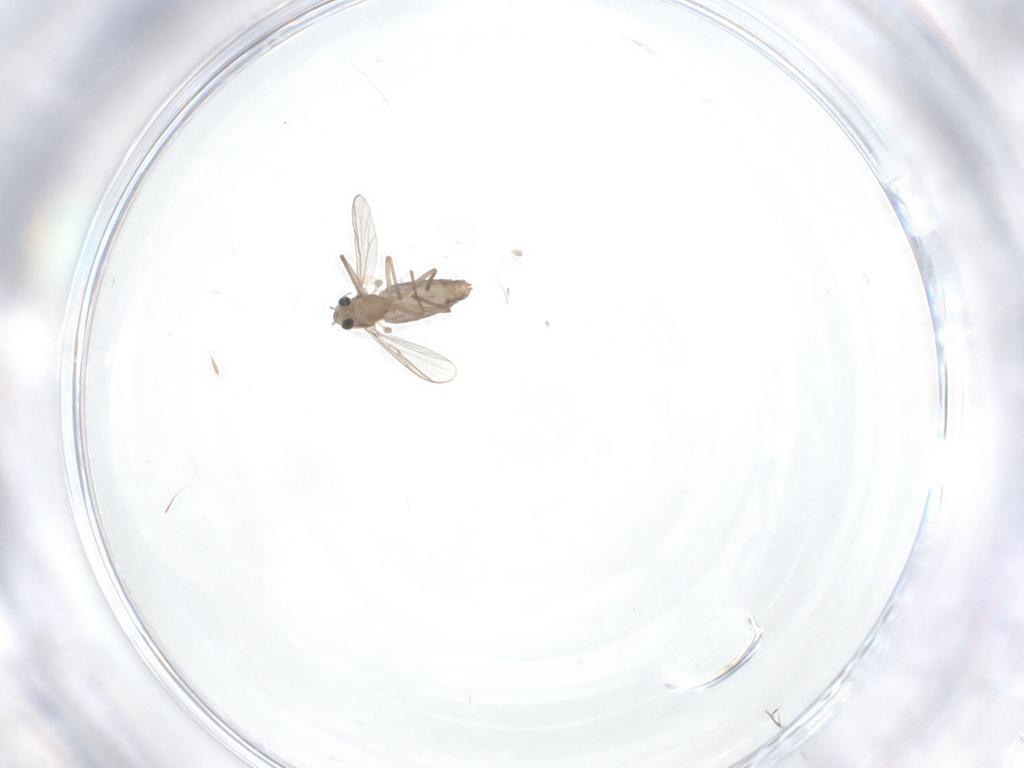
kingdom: Animalia
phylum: Arthropoda
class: Insecta
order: Diptera
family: Chironomidae
